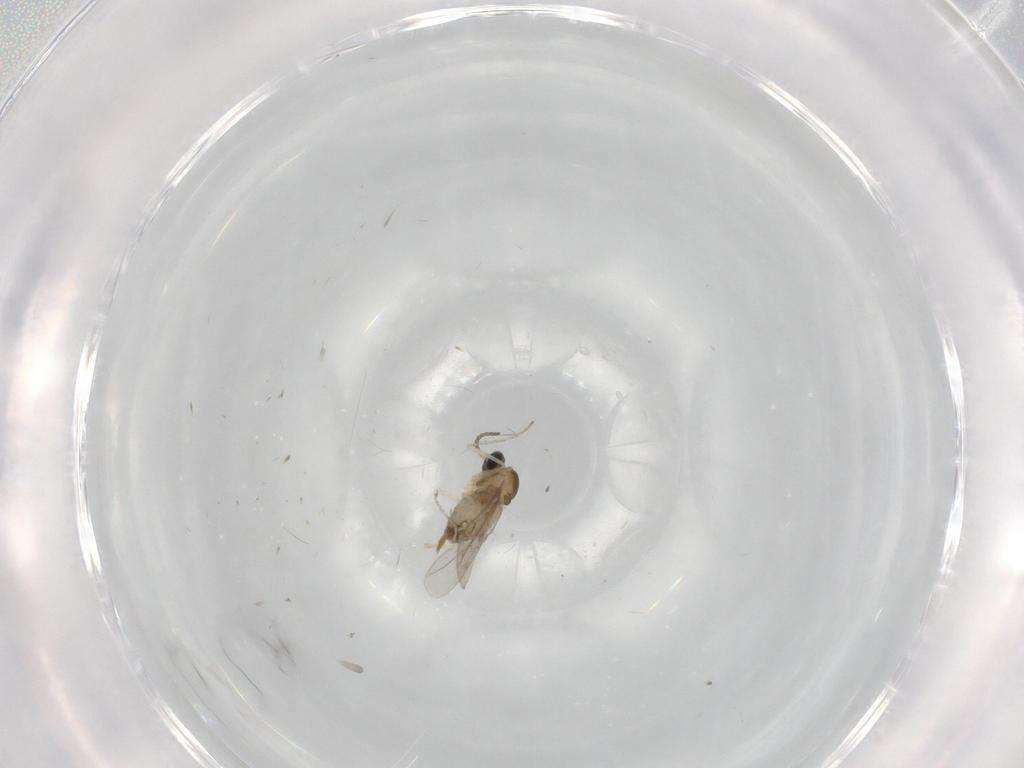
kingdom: Animalia
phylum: Arthropoda
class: Insecta
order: Diptera
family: Cecidomyiidae
